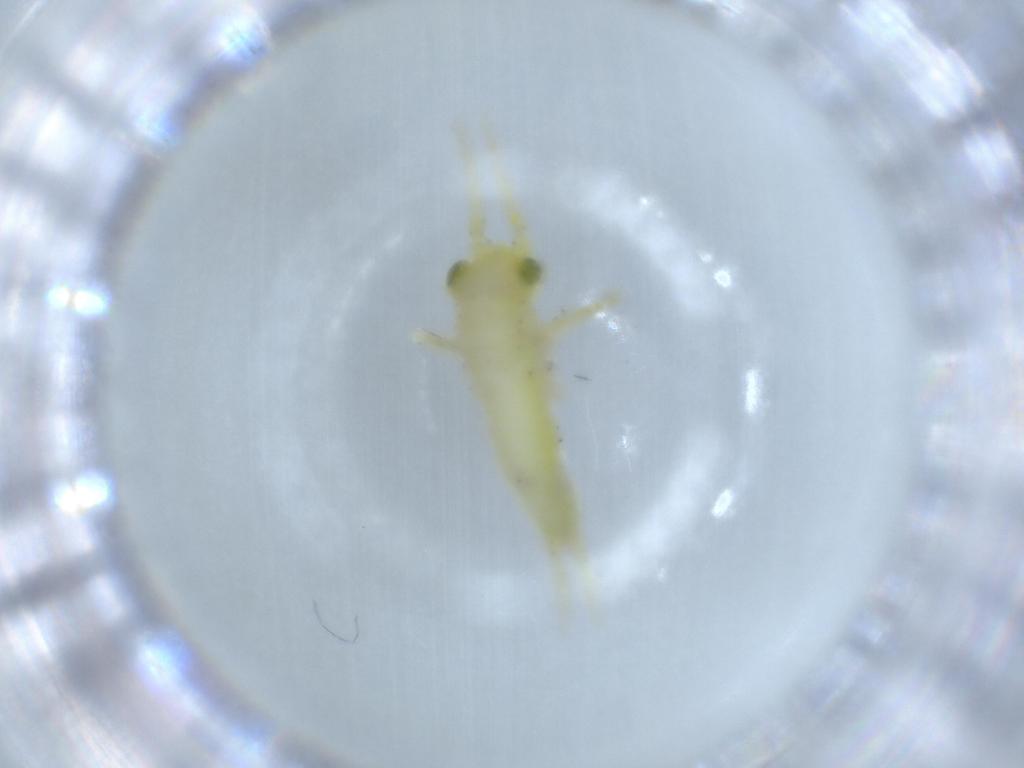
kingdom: Animalia
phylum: Arthropoda
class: Insecta
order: Orthoptera
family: Trigonidiidae
